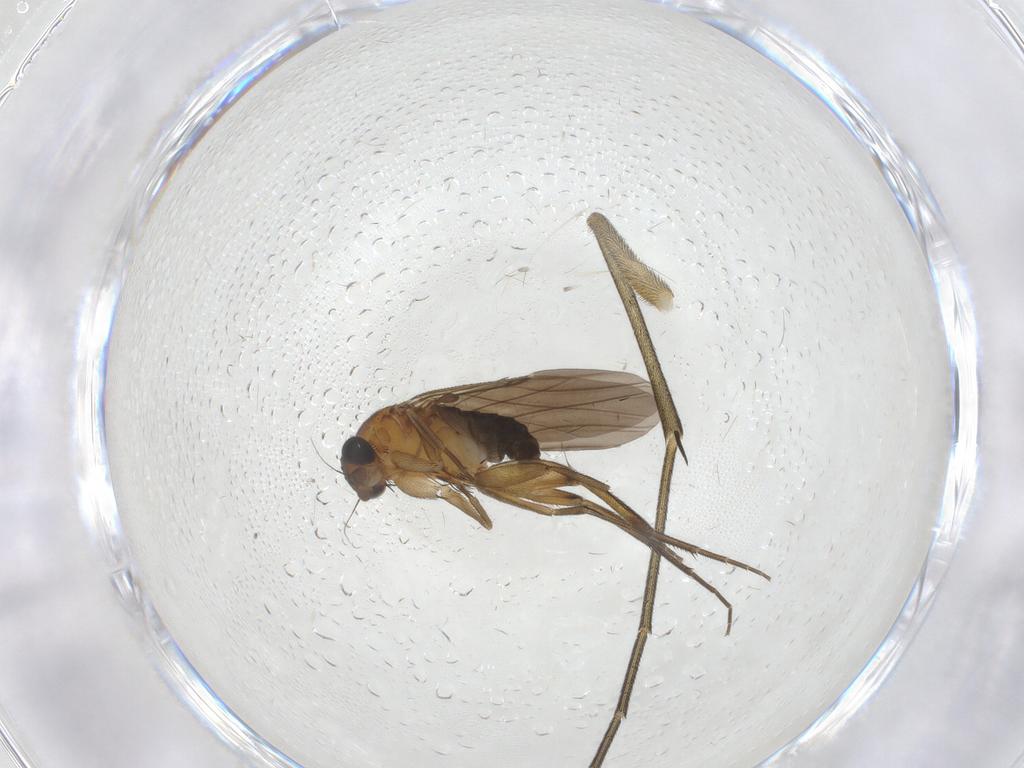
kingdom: Animalia
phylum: Arthropoda
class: Insecta
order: Diptera
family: Phoridae
